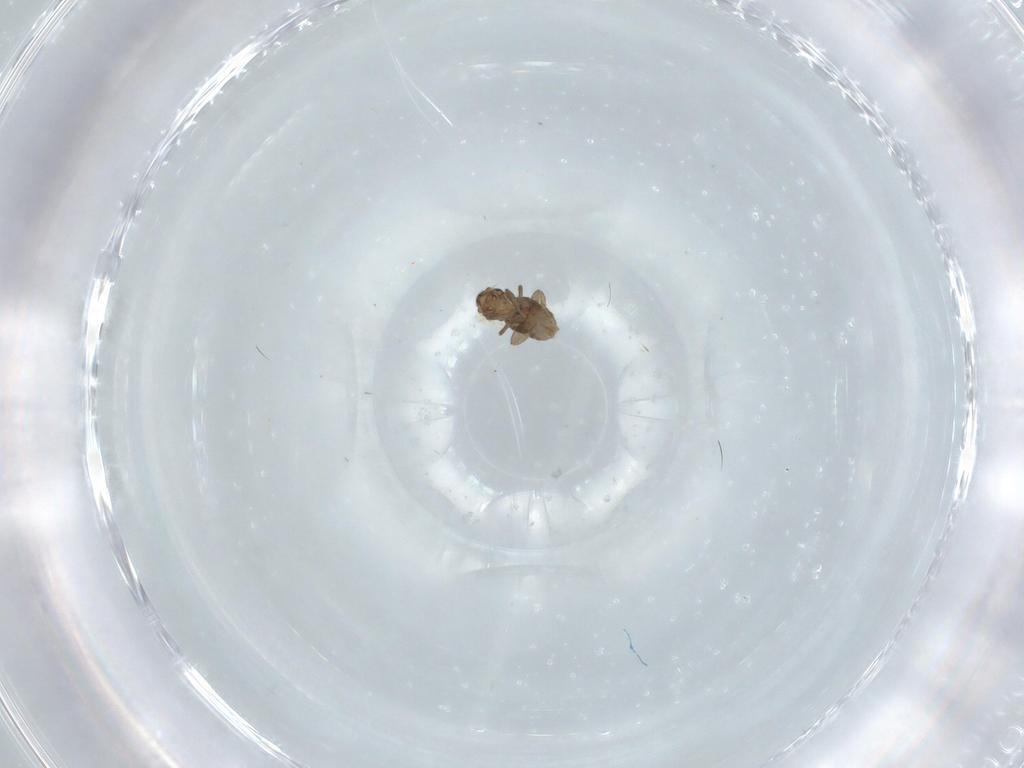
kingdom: Animalia
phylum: Arthropoda
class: Insecta
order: Diptera
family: Phoridae
